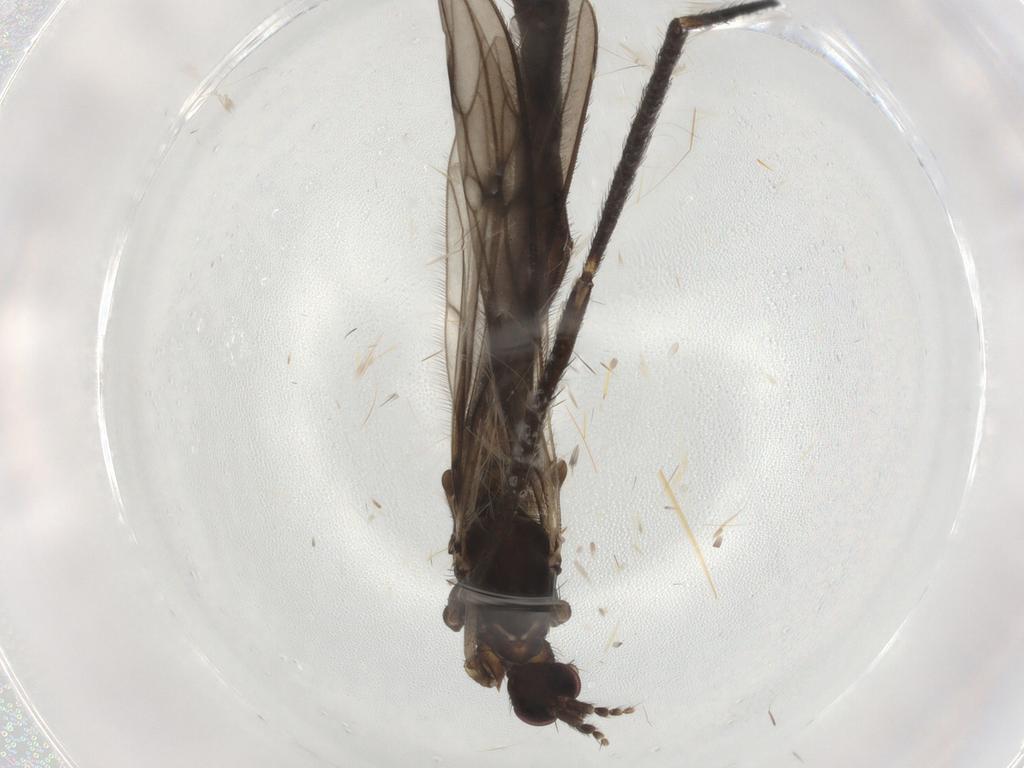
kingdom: Animalia
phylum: Arthropoda
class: Insecta
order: Diptera
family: Limoniidae
